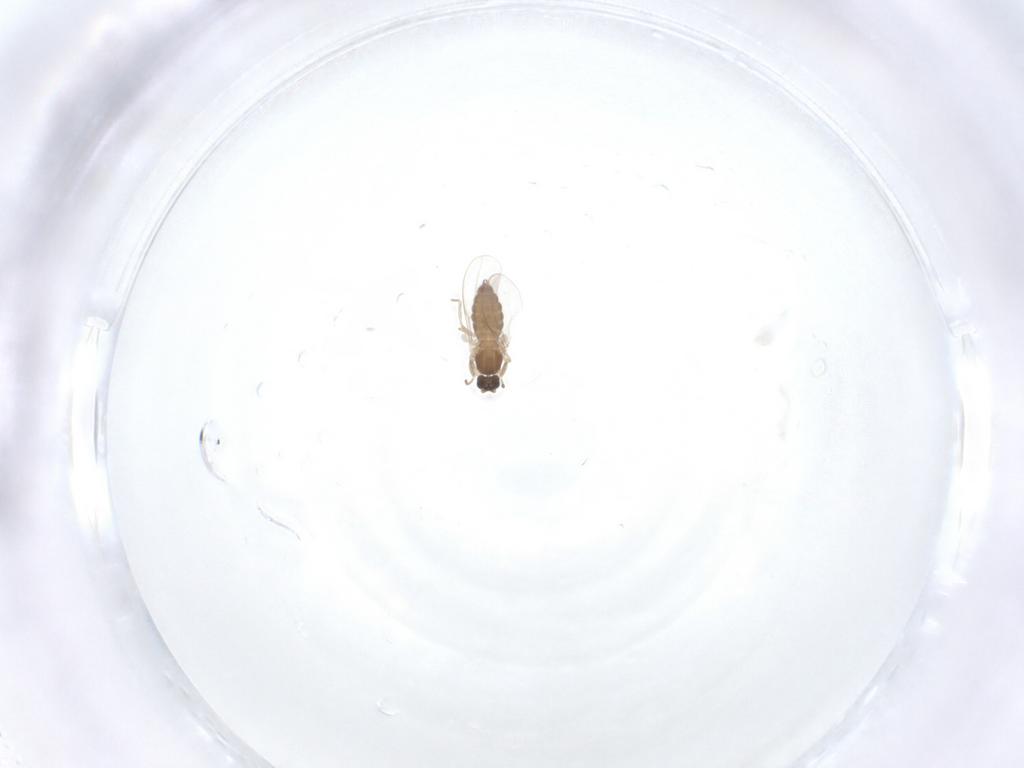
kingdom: Animalia
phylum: Arthropoda
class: Insecta
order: Diptera
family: Cecidomyiidae
